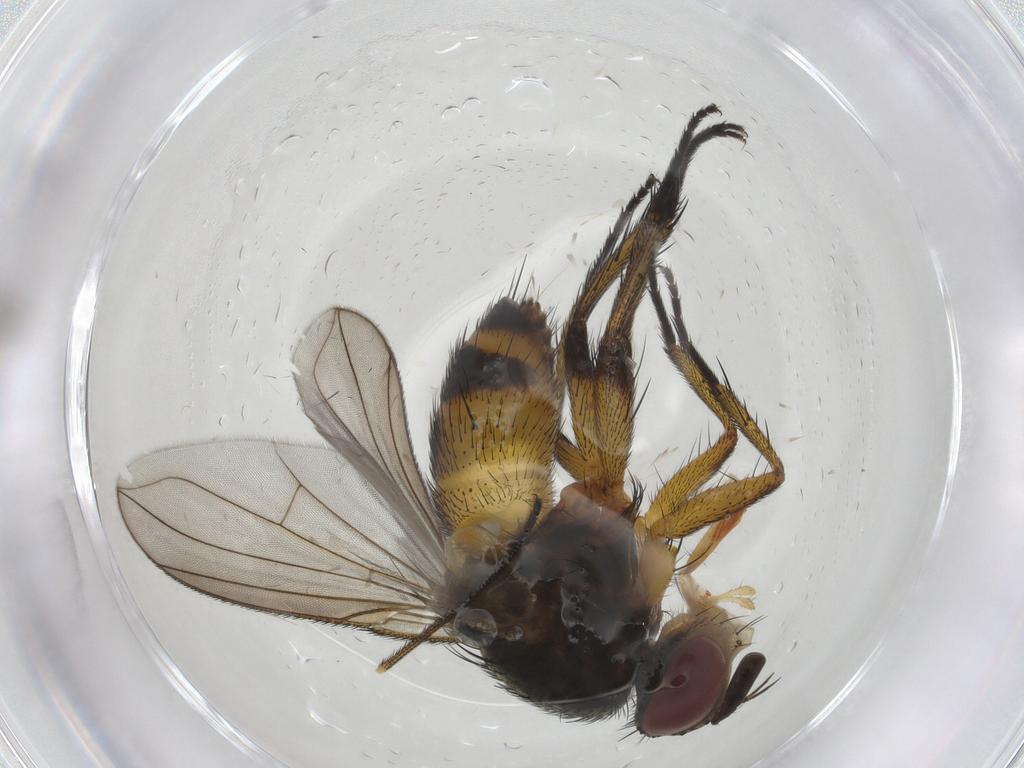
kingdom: Animalia
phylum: Arthropoda
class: Insecta
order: Diptera
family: Tachinidae
